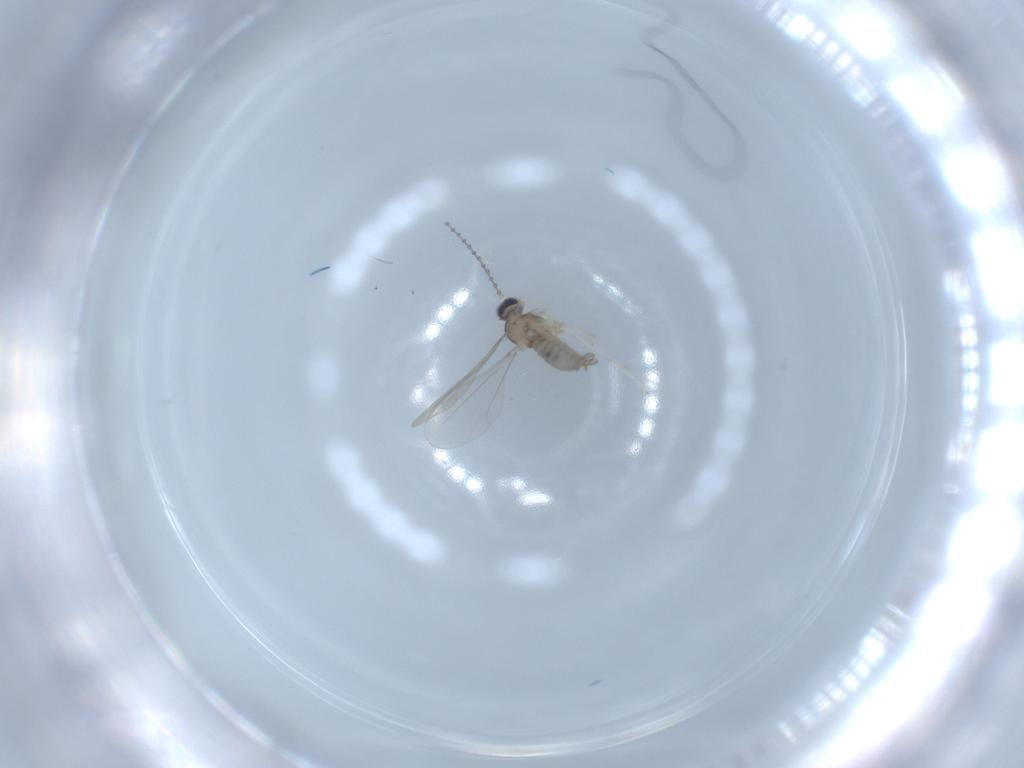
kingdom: Animalia
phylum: Arthropoda
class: Insecta
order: Diptera
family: Cecidomyiidae
